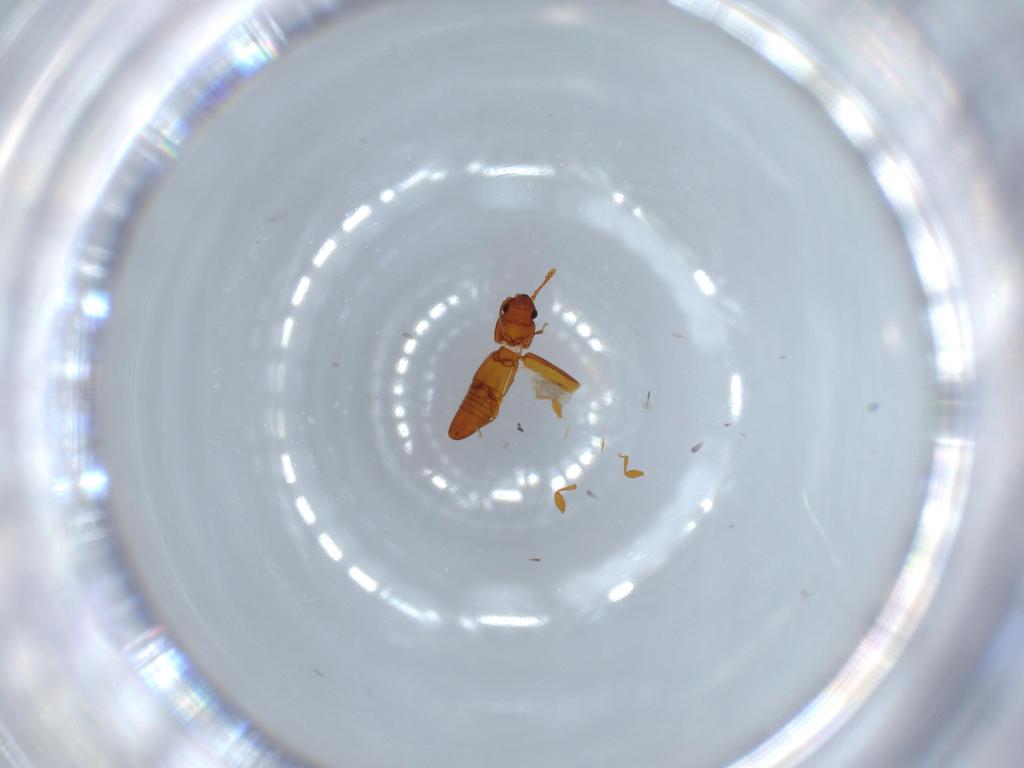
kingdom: Animalia
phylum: Arthropoda
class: Insecta
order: Coleoptera
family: Smicripidae
